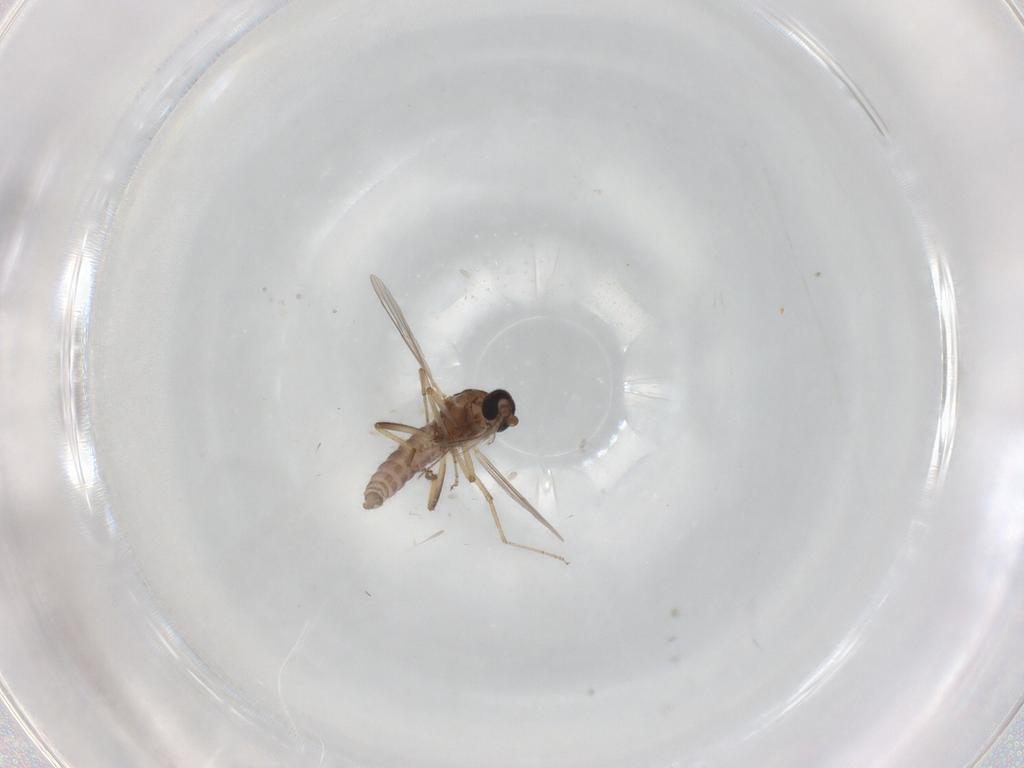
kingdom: Animalia
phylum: Arthropoda
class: Insecta
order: Diptera
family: Ceratopogonidae
